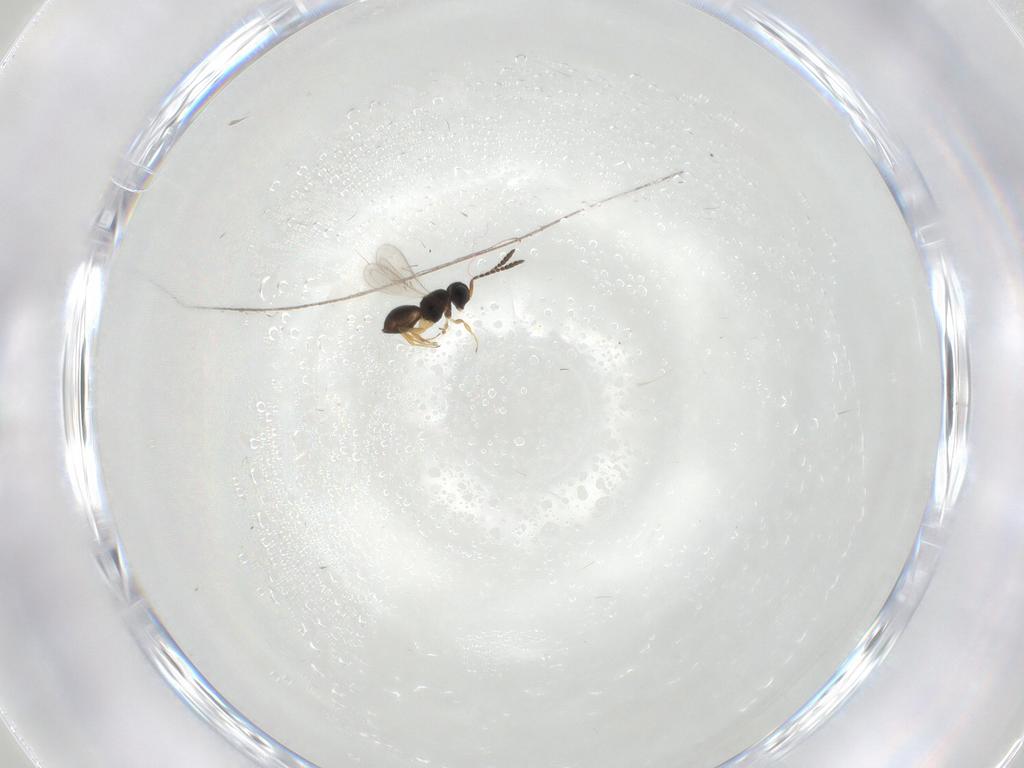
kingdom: Animalia
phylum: Arthropoda
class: Insecta
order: Hymenoptera
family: Scelionidae
